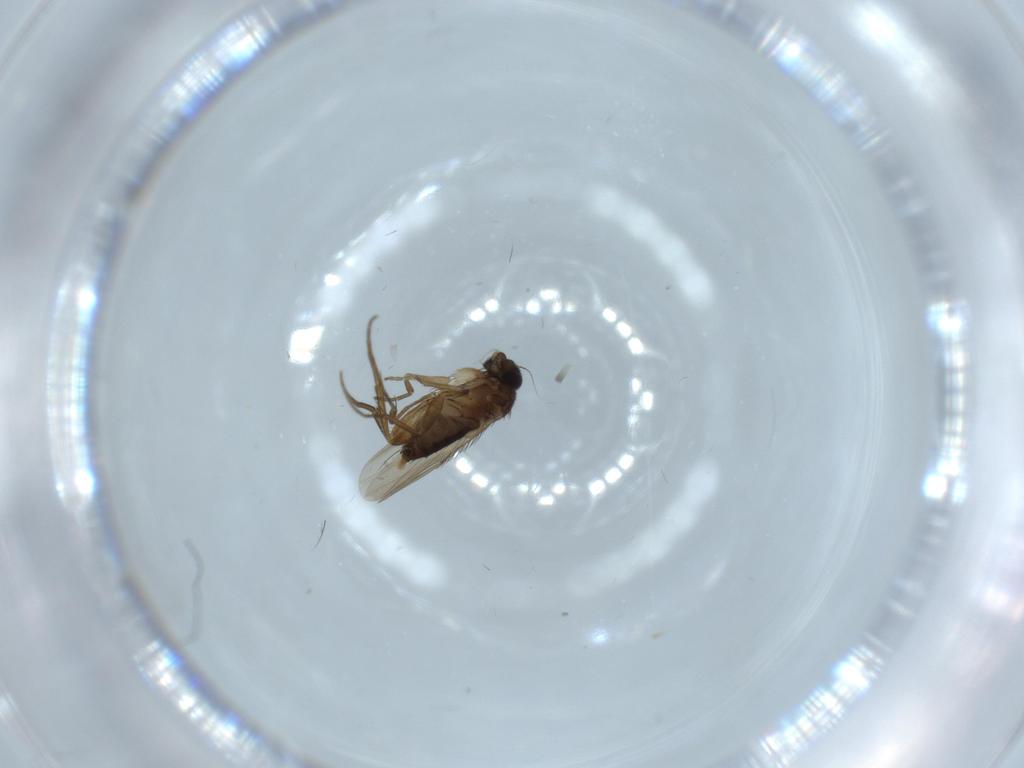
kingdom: Animalia
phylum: Arthropoda
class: Insecta
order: Diptera
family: Phoridae
